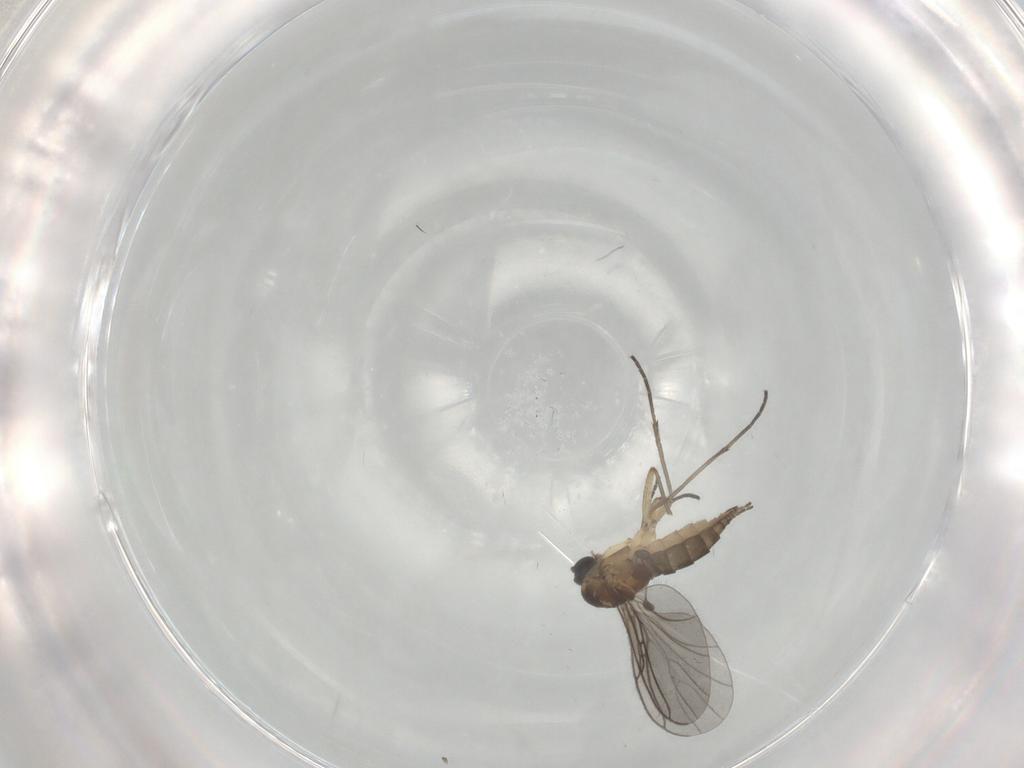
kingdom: Animalia
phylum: Arthropoda
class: Insecta
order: Diptera
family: Sciaridae
